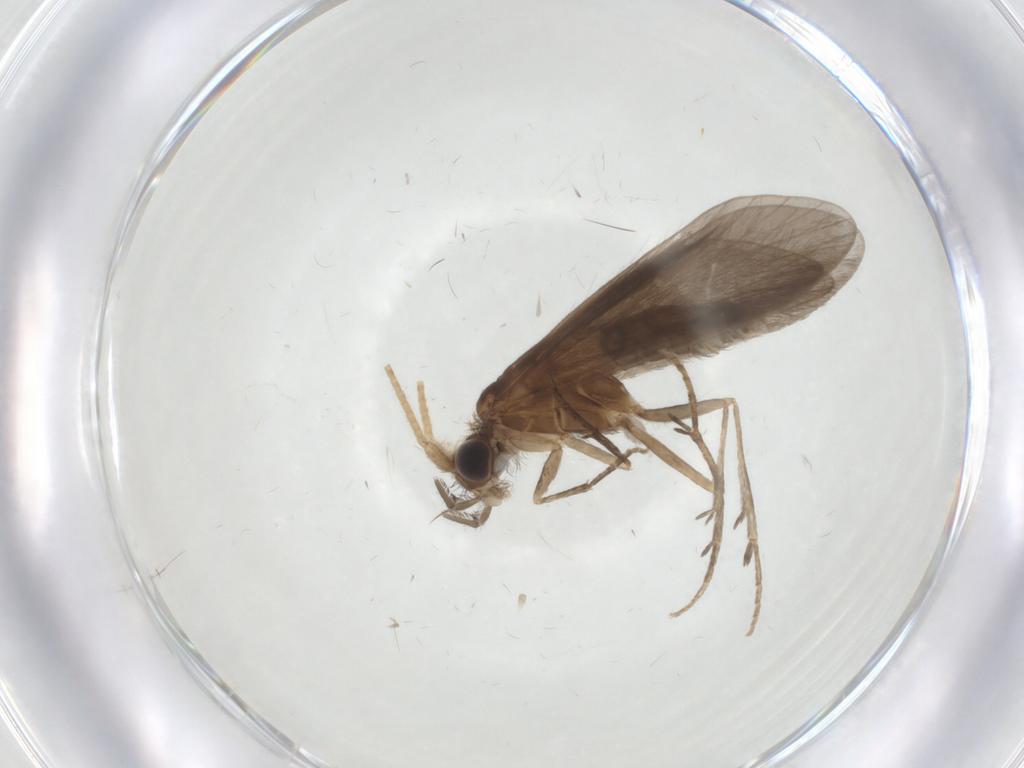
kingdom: Animalia
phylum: Arthropoda
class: Insecta
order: Trichoptera
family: Helicopsychidae
